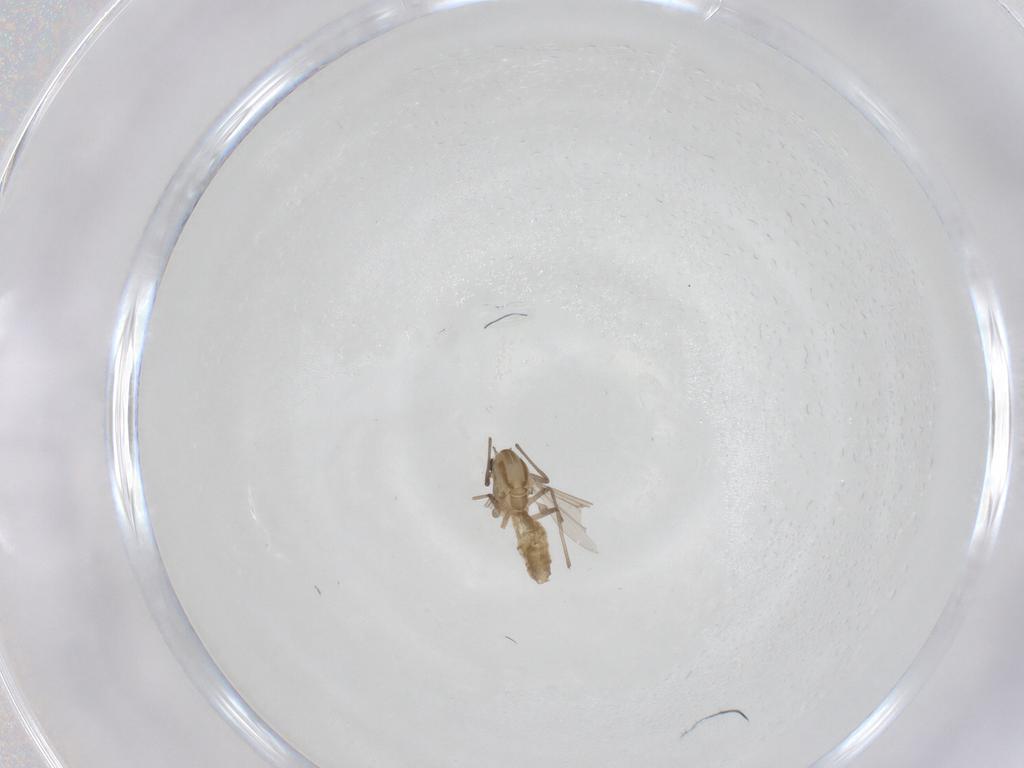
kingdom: Animalia
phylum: Arthropoda
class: Insecta
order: Diptera
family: Chironomidae
